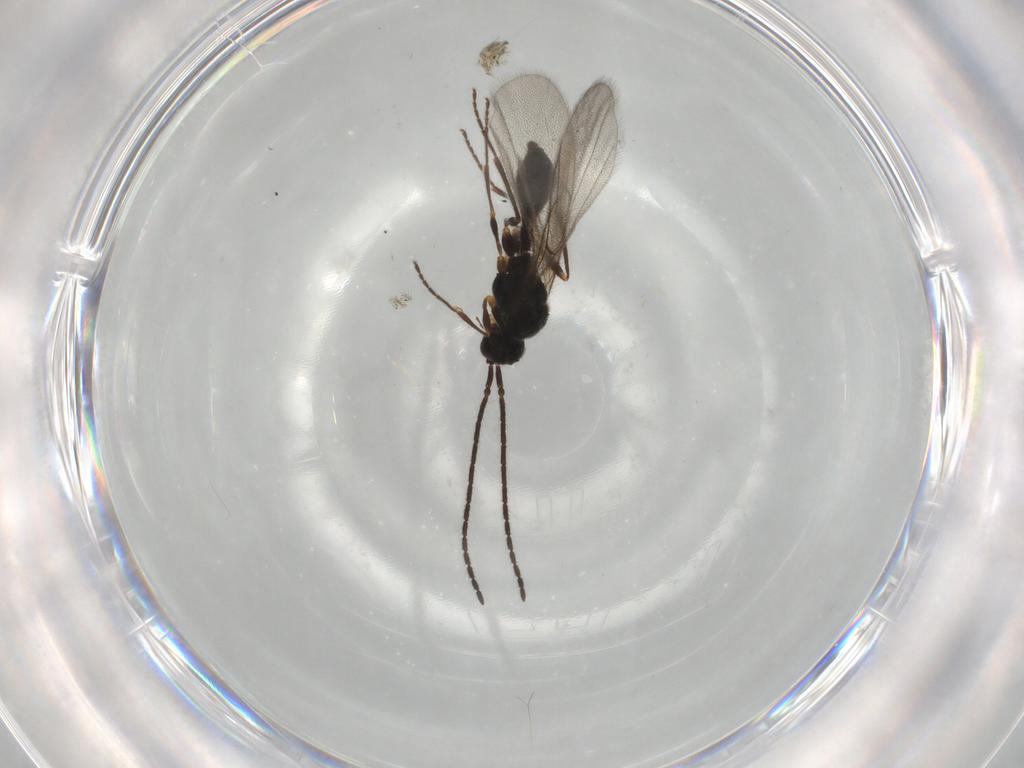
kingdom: Animalia
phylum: Arthropoda
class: Insecta
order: Hymenoptera
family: Diapriidae
